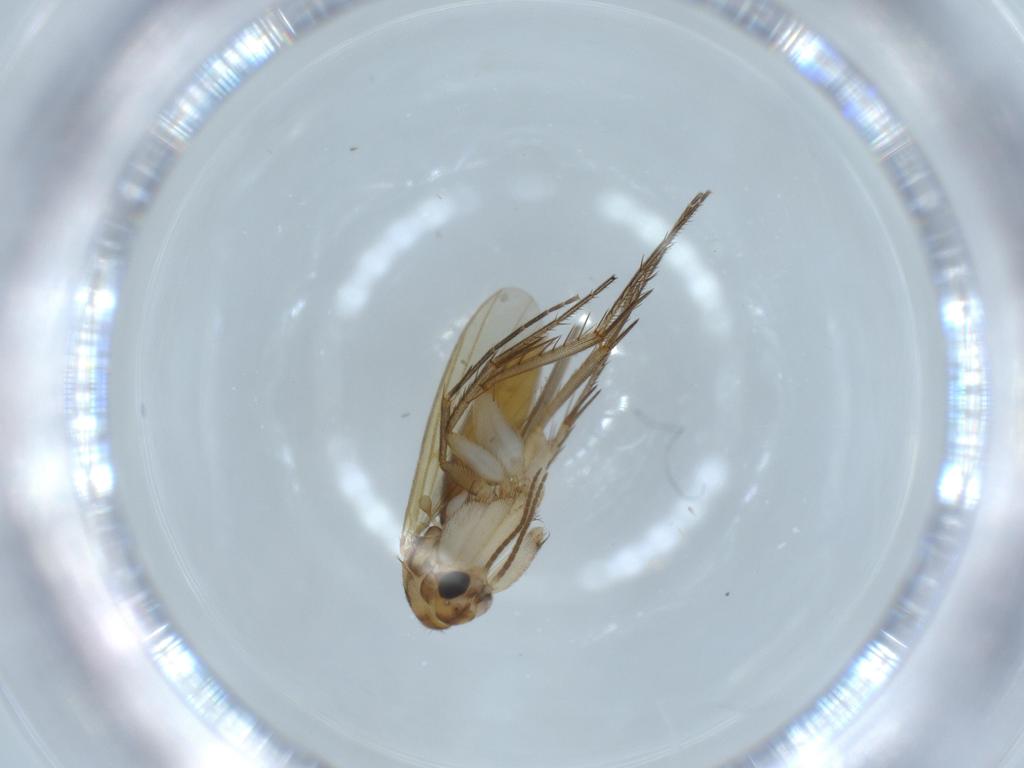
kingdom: Animalia
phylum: Arthropoda
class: Insecta
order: Diptera
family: Mycetophilidae
